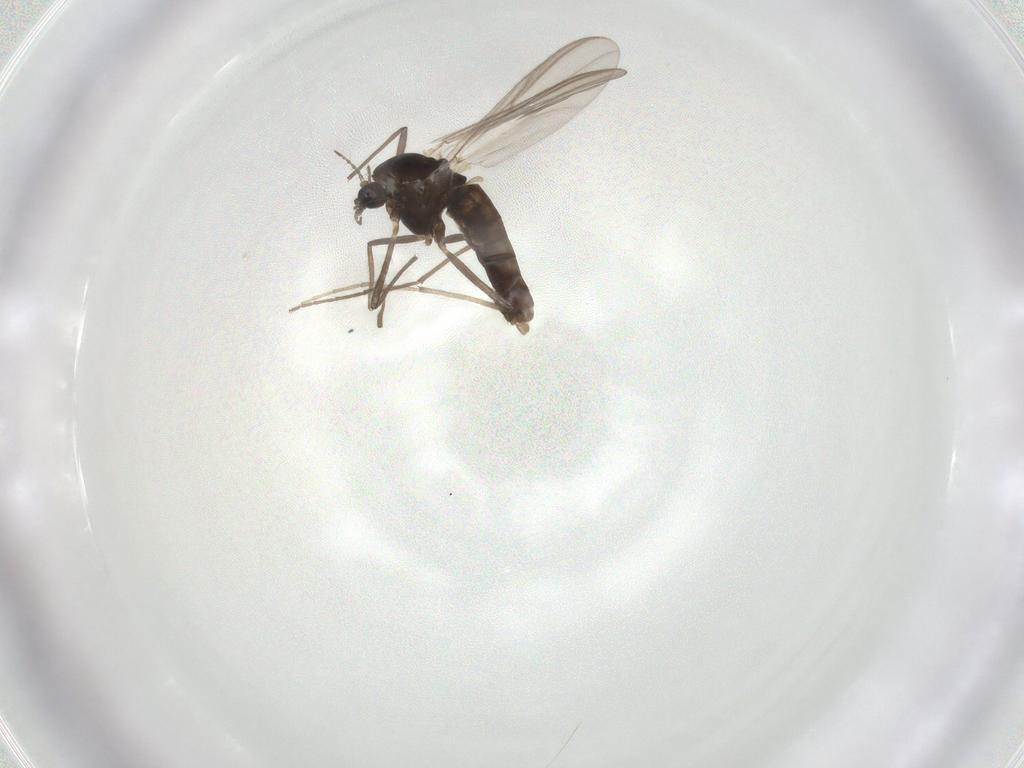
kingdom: Animalia
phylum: Arthropoda
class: Insecta
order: Diptera
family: Chironomidae
